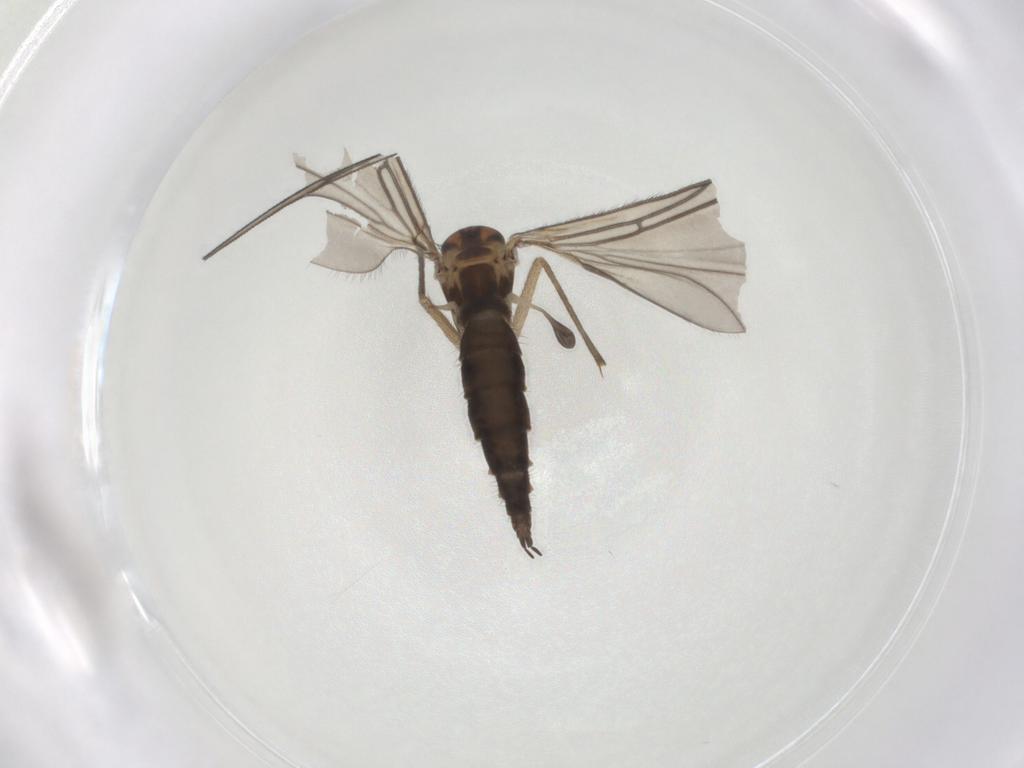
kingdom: Animalia
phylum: Arthropoda
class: Insecta
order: Diptera
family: Sciaridae
